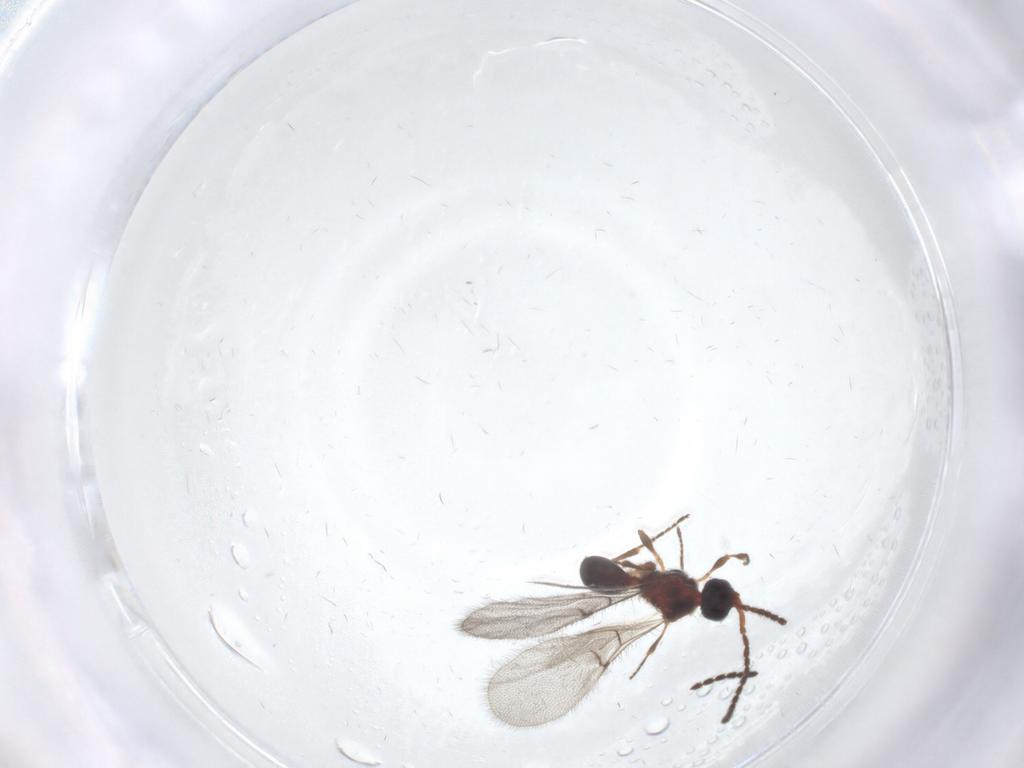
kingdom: Animalia
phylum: Arthropoda
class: Insecta
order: Hymenoptera
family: Diapriidae
